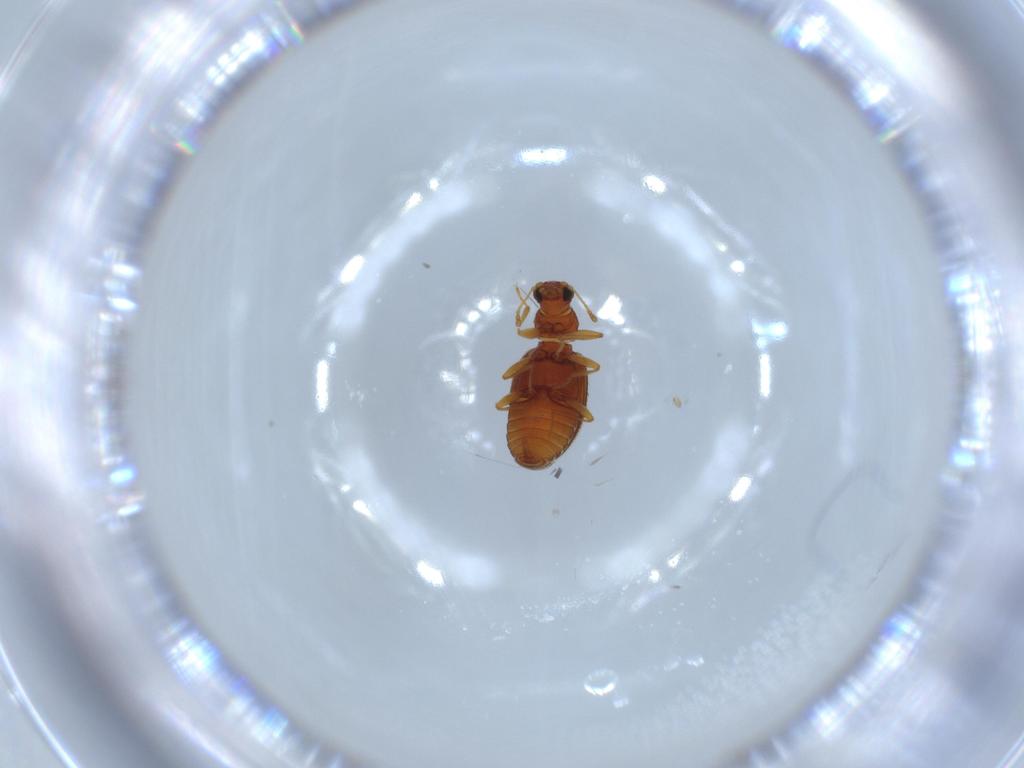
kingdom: Animalia
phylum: Arthropoda
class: Insecta
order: Coleoptera
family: Latridiidae
